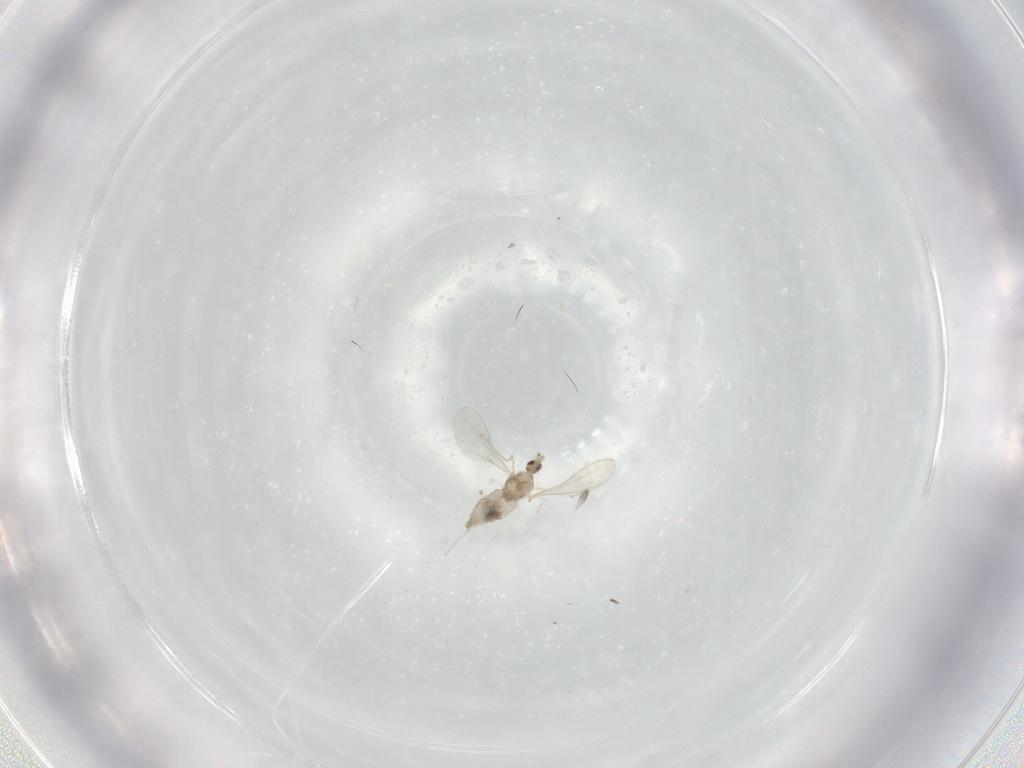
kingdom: Animalia
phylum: Arthropoda
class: Insecta
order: Diptera
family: Cecidomyiidae
